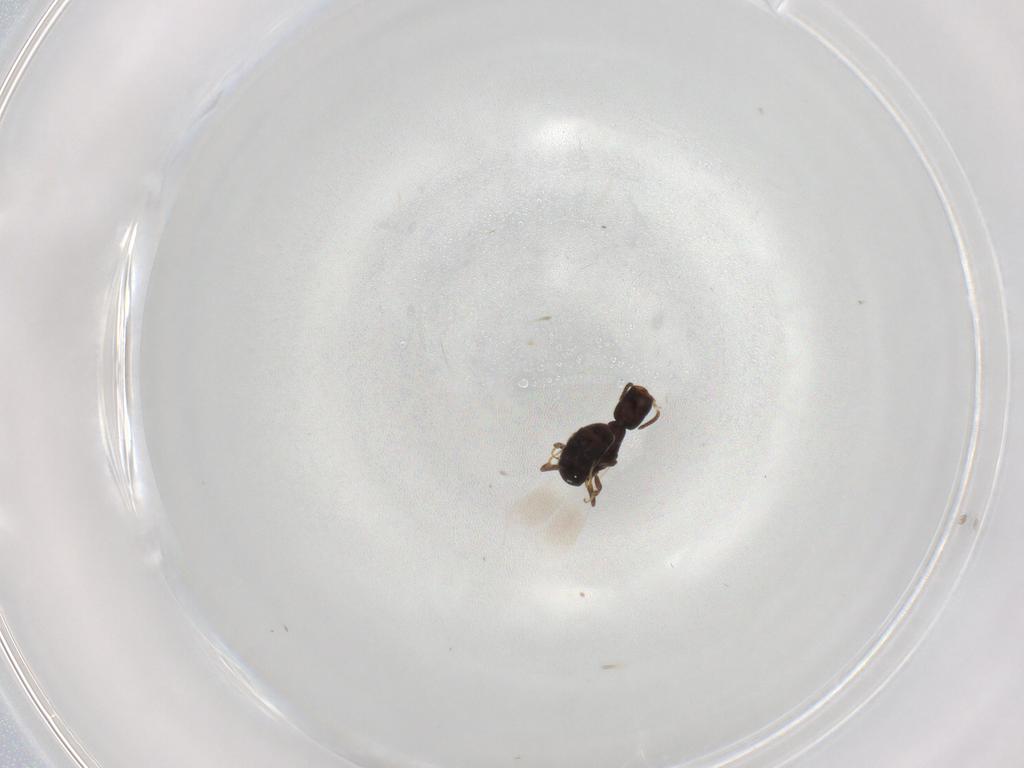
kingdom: Animalia
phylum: Arthropoda
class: Insecta
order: Hymenoptera
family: Bethylidae
